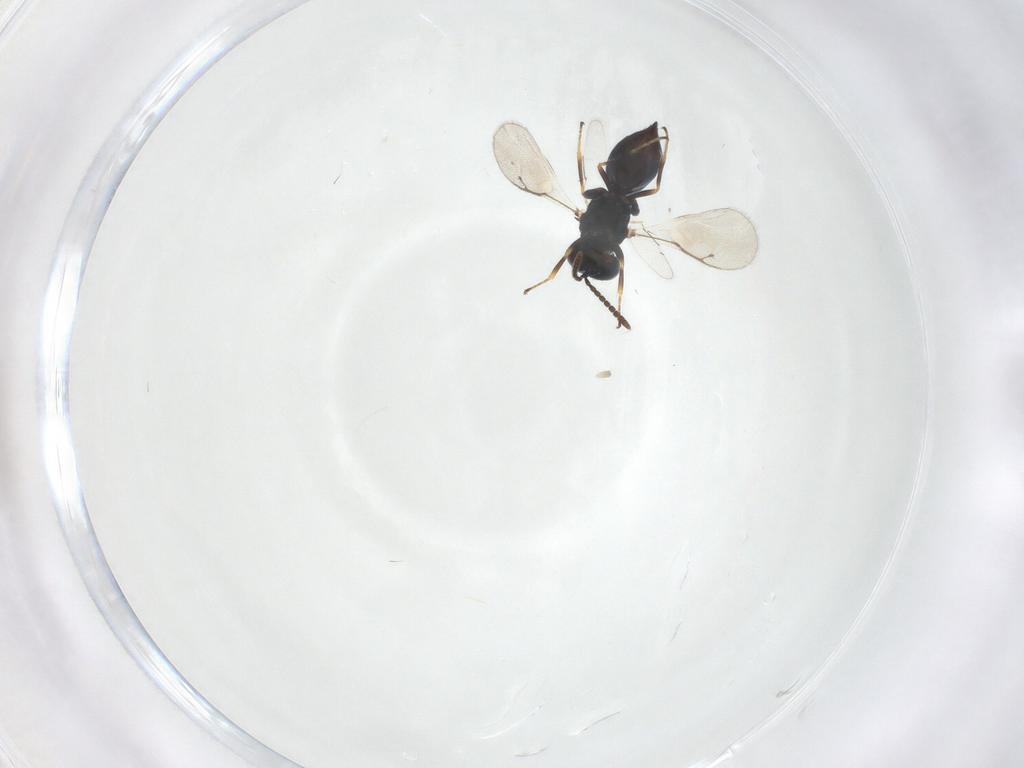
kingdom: Animalia
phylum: Arthropoda
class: Insecta
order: Hymenoptera
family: Pteromalidae
